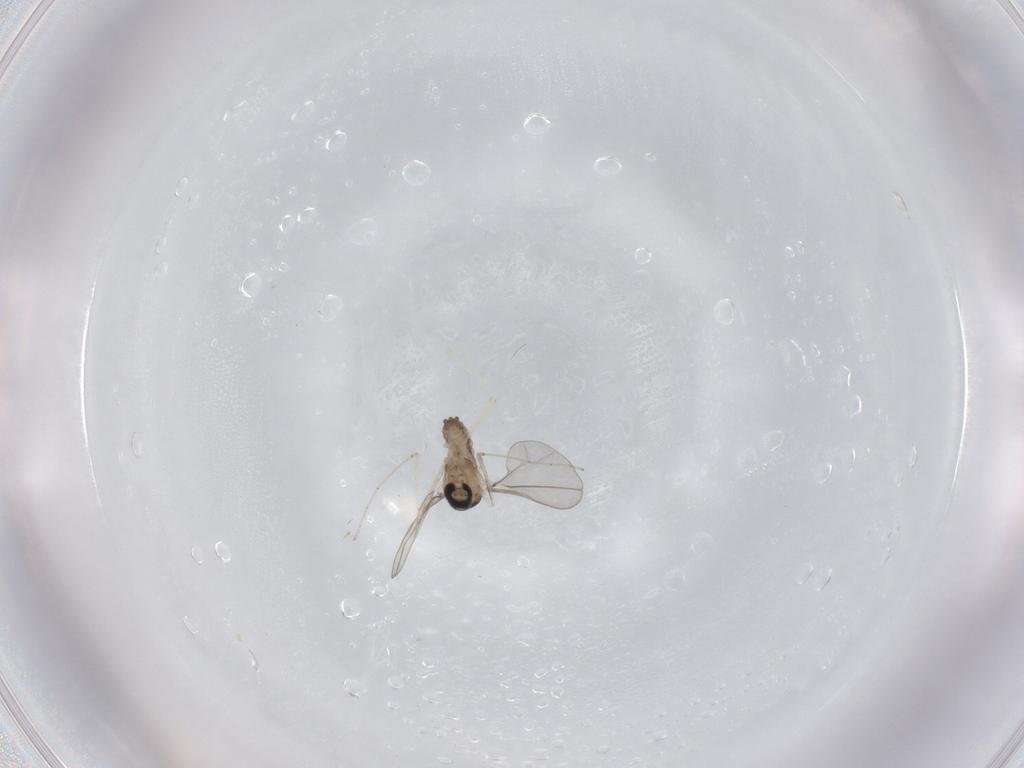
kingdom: Animalia
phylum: Arthropoda
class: Insecta
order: Diptera
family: Cecidomyiidae
